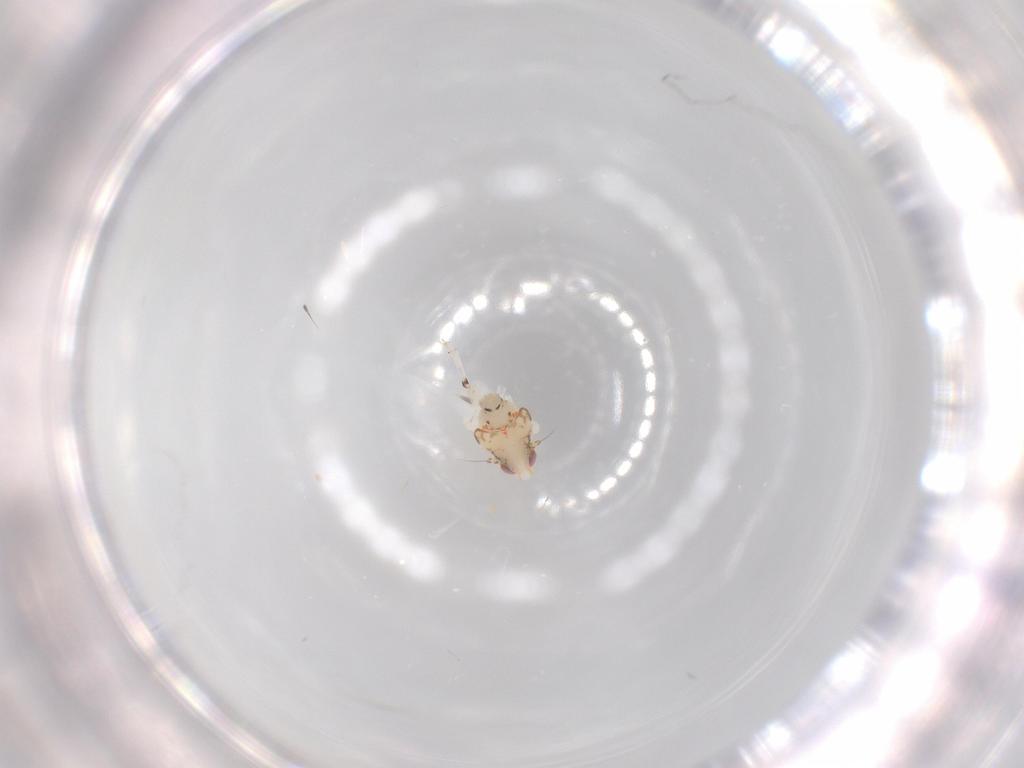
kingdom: Animalia
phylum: Arthropoda
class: Insecta
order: Hemiptera
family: Nogodinidae
